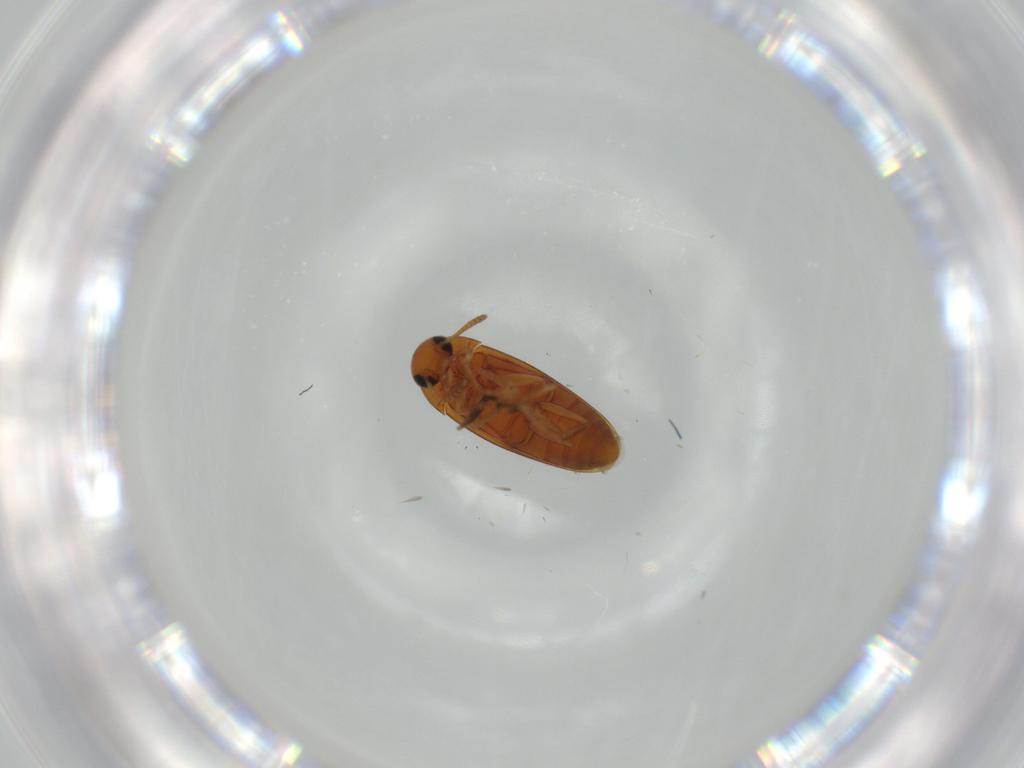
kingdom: Animalia
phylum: Arthropoda
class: Insecta
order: Coleoptera
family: Scraptiidae
